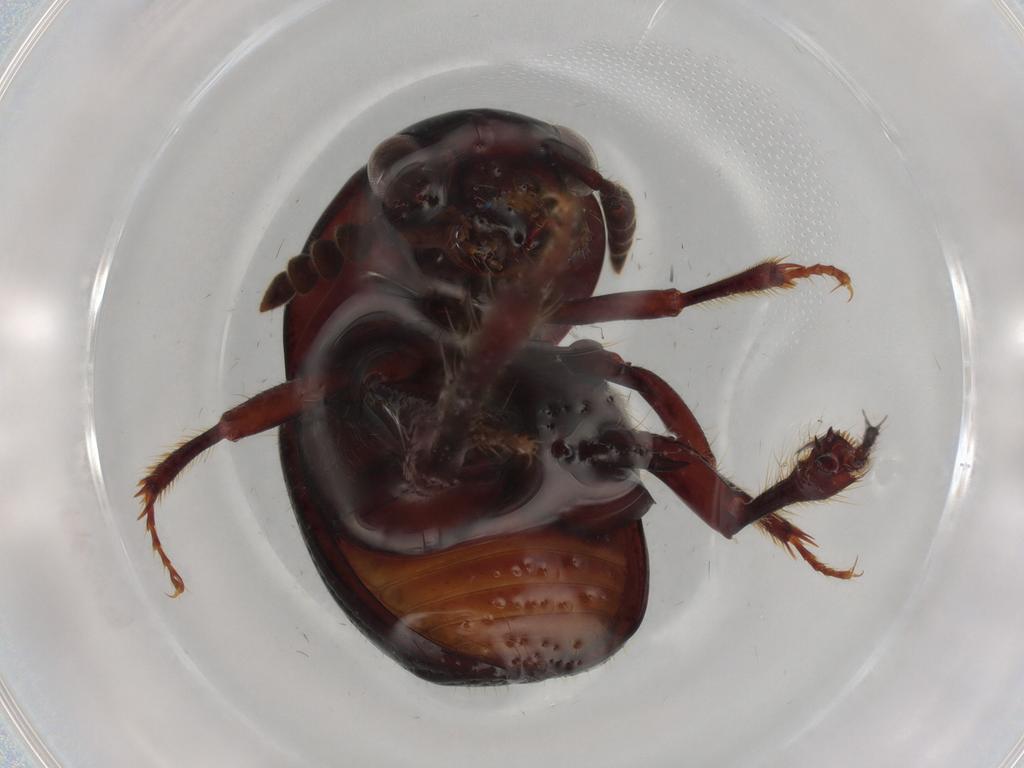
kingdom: Animalia
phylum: Arthropoda
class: Insecta
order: Coleoptera
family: Leiodidae
